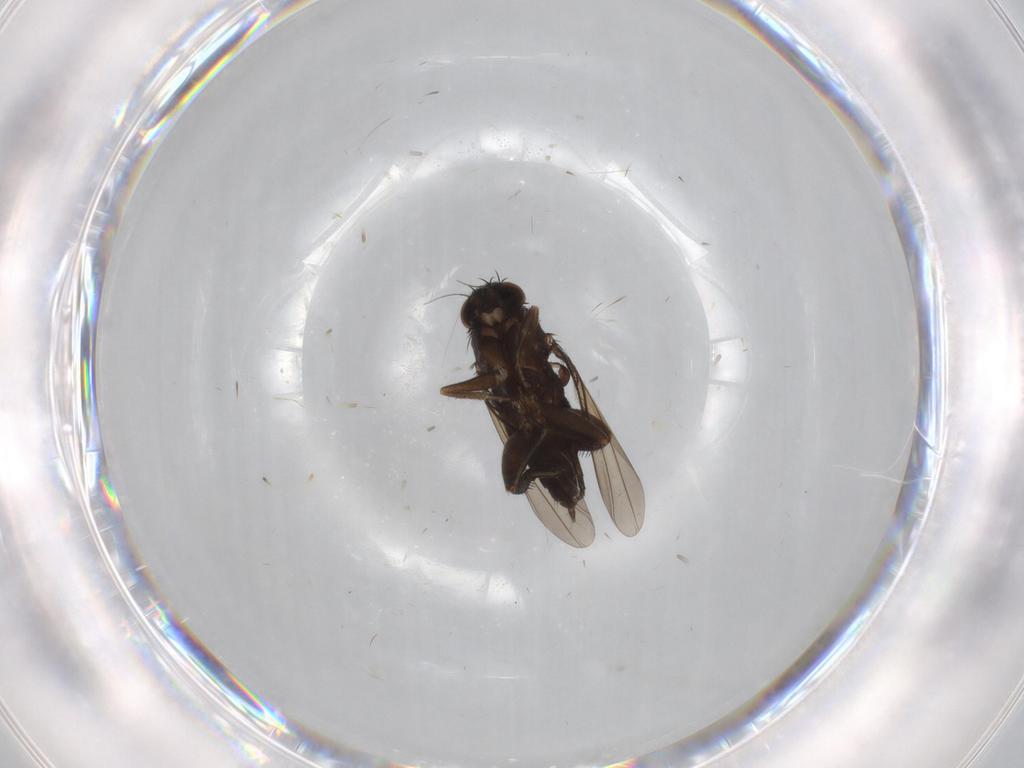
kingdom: Animalia
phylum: Arthropoda
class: Insecta
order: Diptera
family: Phoridae
